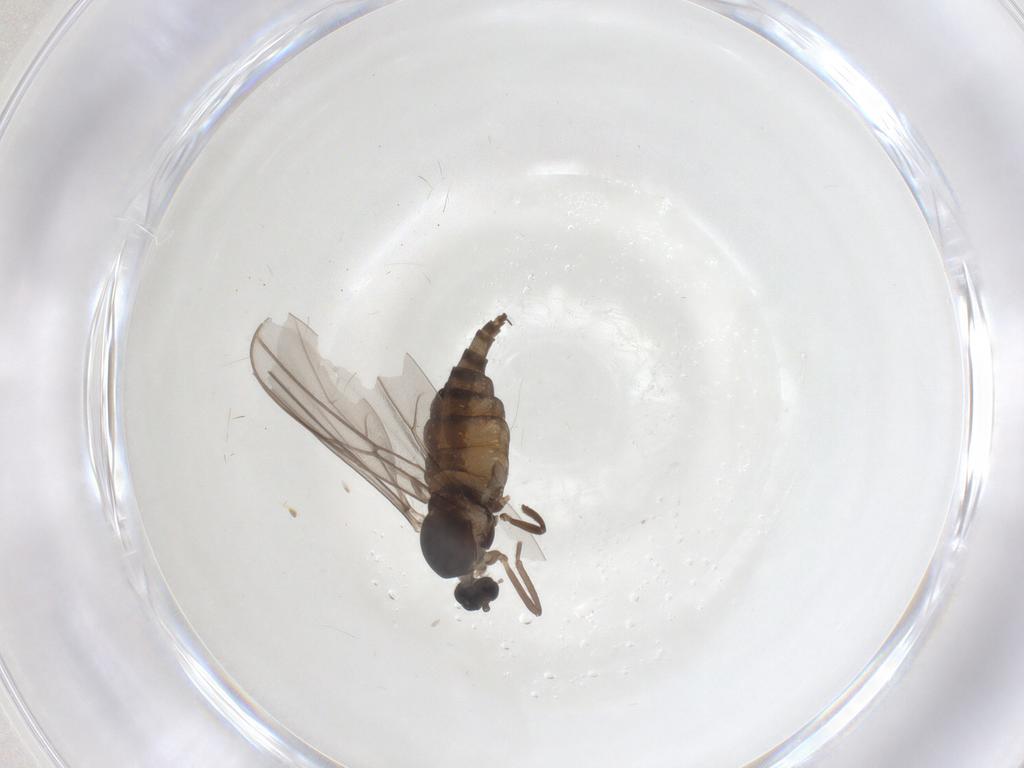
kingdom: Animalia
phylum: Arthropoda
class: Insecta
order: Diptera
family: Cecidomyiidae
